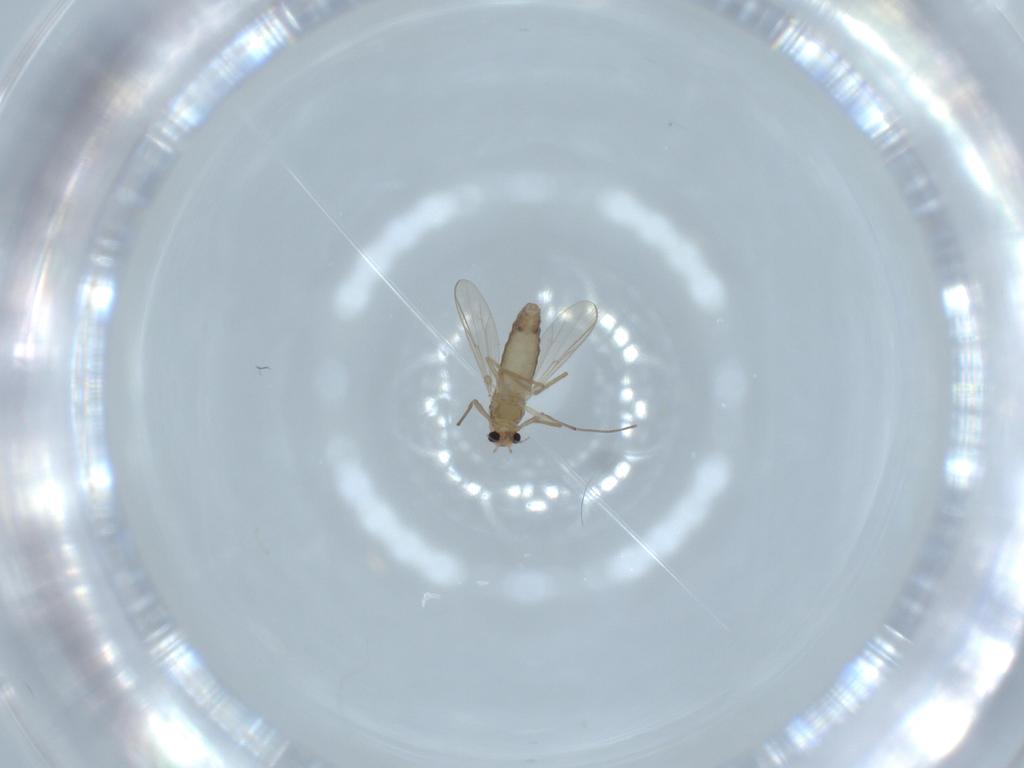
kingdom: Animalia
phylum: Arthropoda
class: Insecta
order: Diptera
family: Chironomidae
